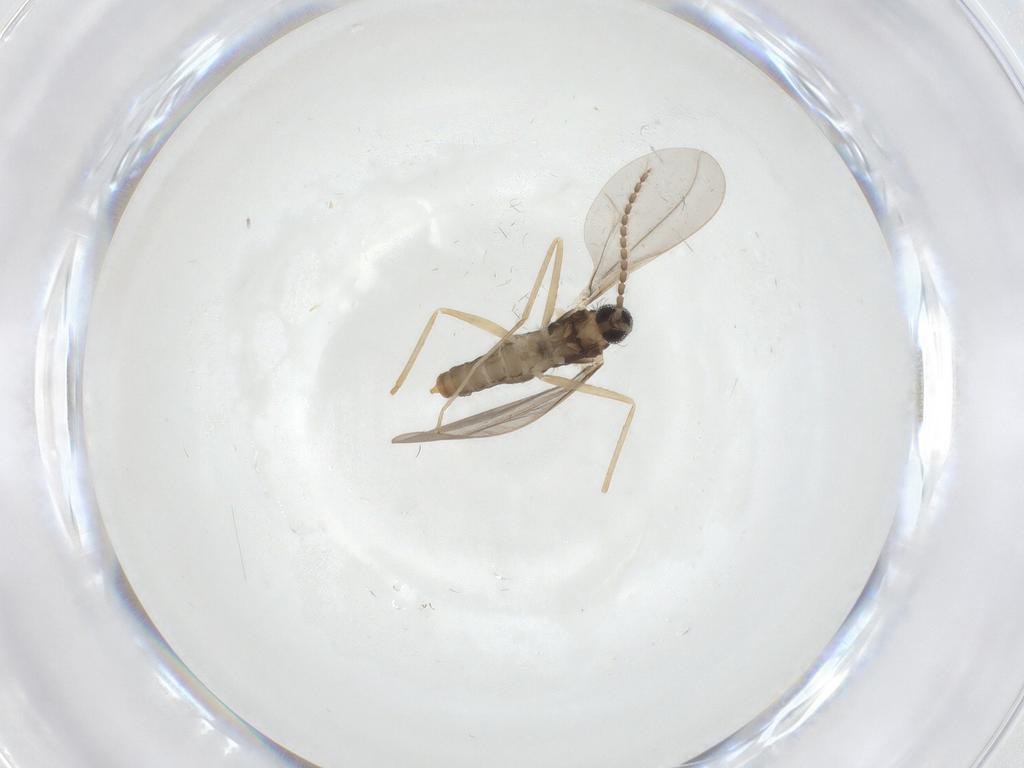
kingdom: Animalia
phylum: Arthropoda
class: Insecta
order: Diptera
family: Cecidomyiidae
